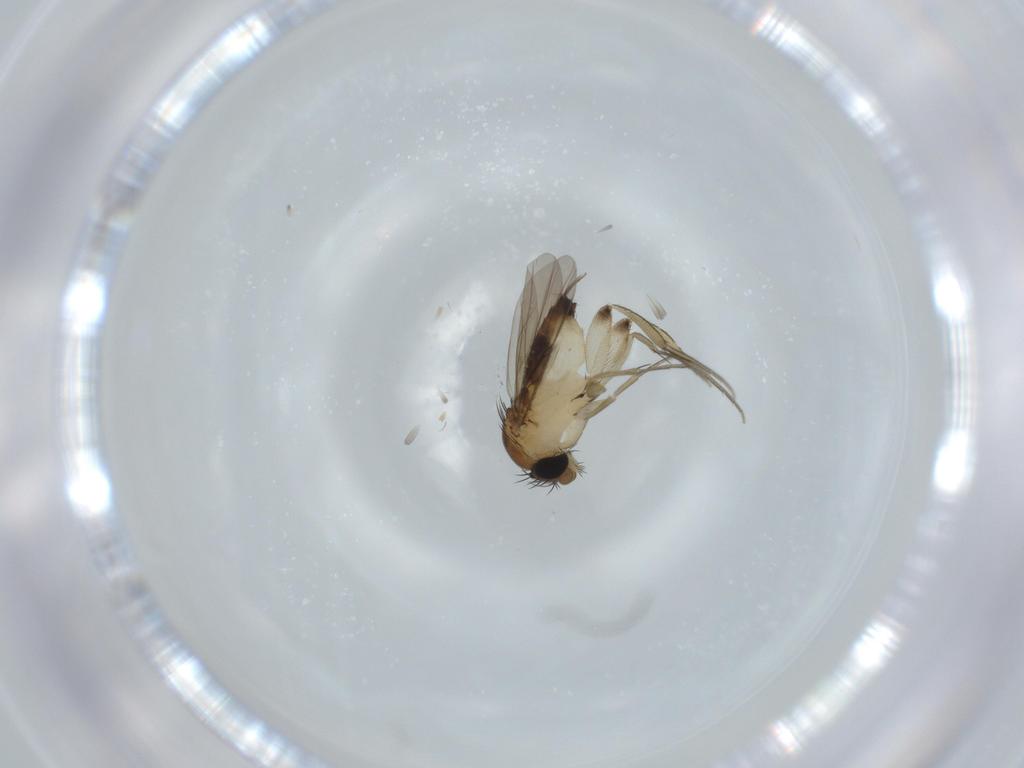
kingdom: Animalia
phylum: Arthropoda
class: Insecta
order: Diptera
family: Phoridae
